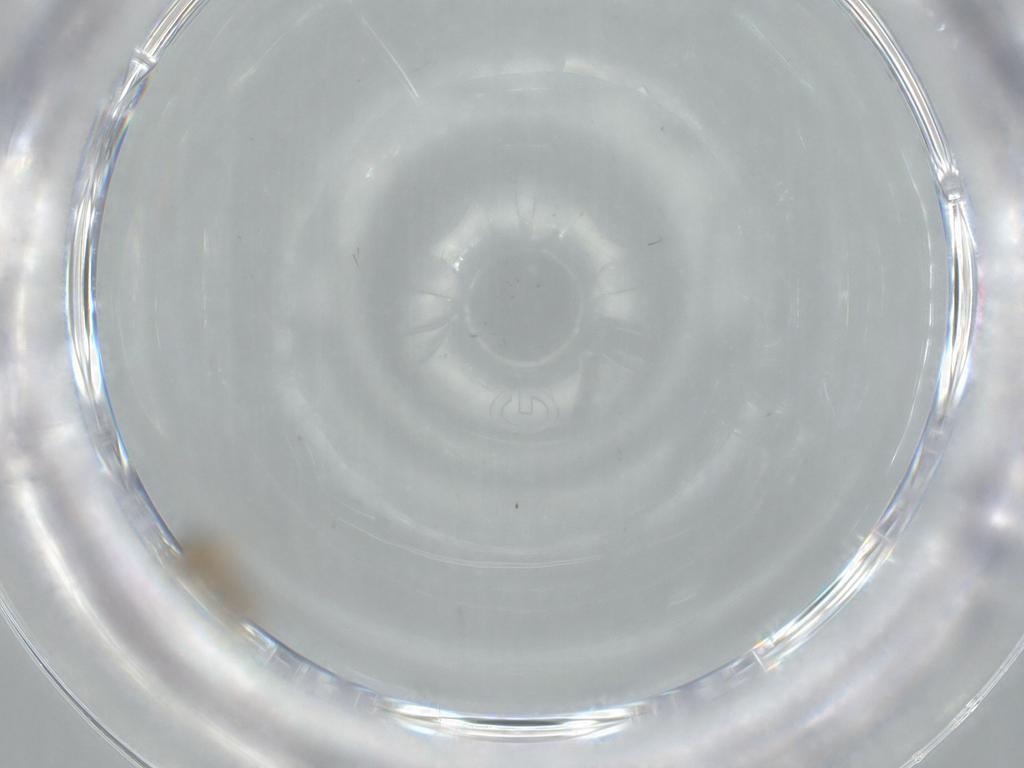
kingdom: Animalia
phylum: Arthropoda
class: Insecta
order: Diptera
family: Cecidomyiidae
